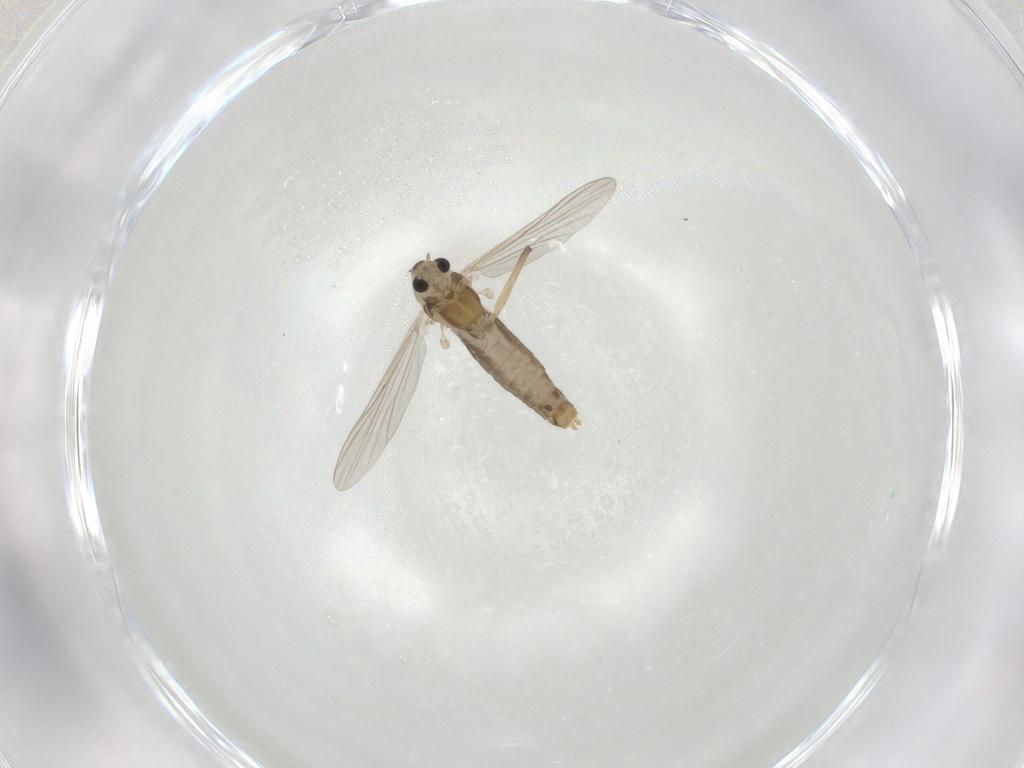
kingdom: Animalia
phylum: Arthropoda
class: Insecta
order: Diptera
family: Chironomidae
